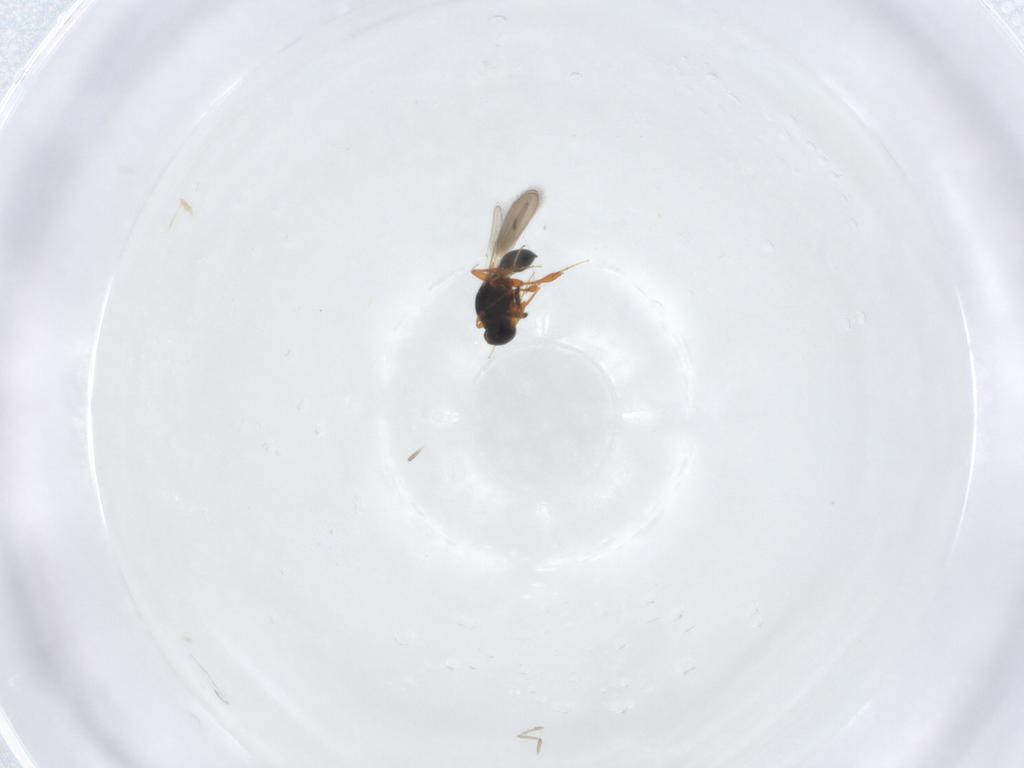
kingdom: Animalia
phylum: Arthropoda
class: Insecta
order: Hymenoptera
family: Platygastridae
